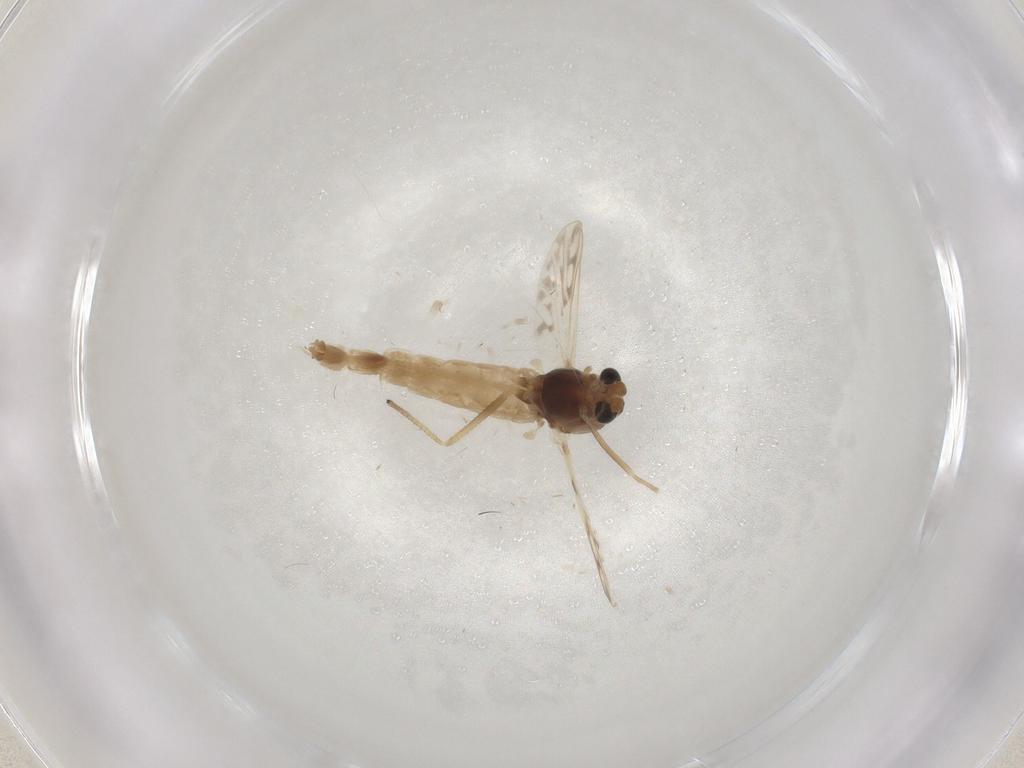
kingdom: Animalia
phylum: Arthropoda
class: Insecta
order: Diptera
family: Chironomidae
